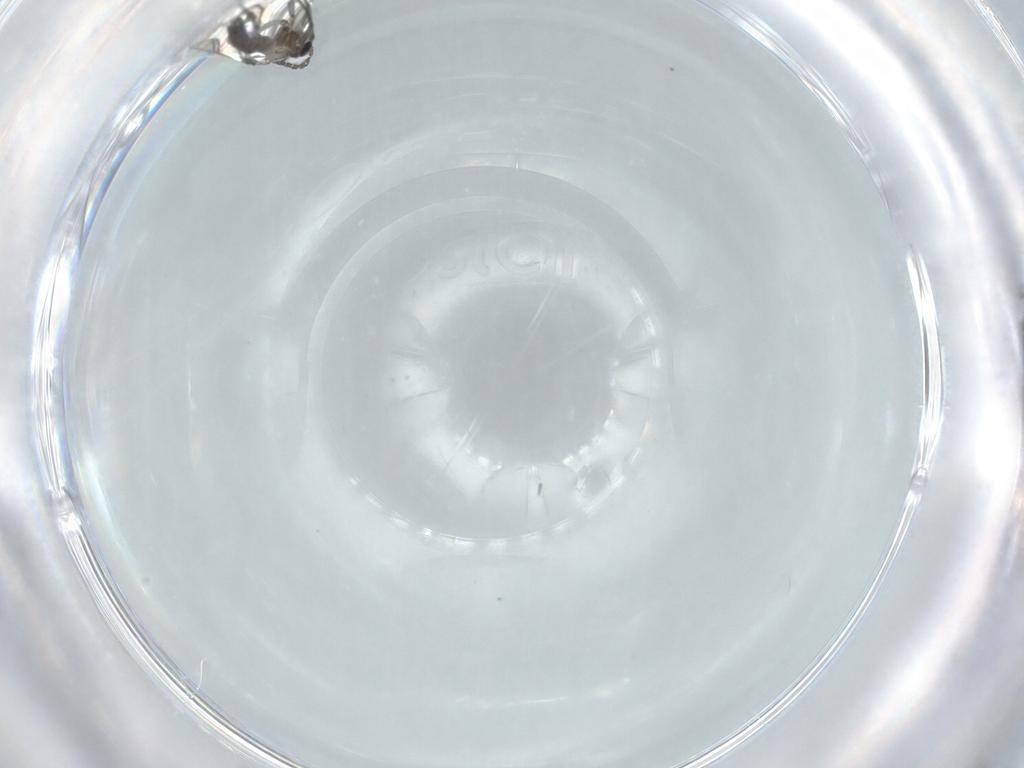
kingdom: Animalia
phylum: Arthropoda
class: Insecta
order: Diptera
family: Sciaridae
